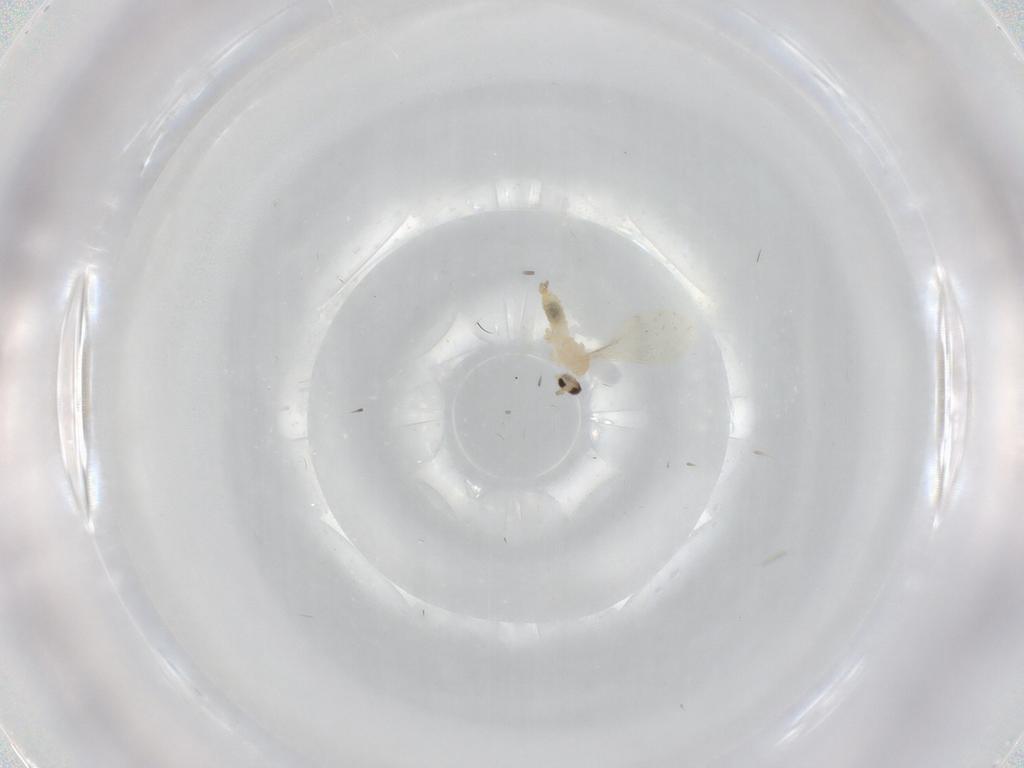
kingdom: Animalia
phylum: Arthropoda
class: Insecta
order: Diptera
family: Cecidomyiidae
